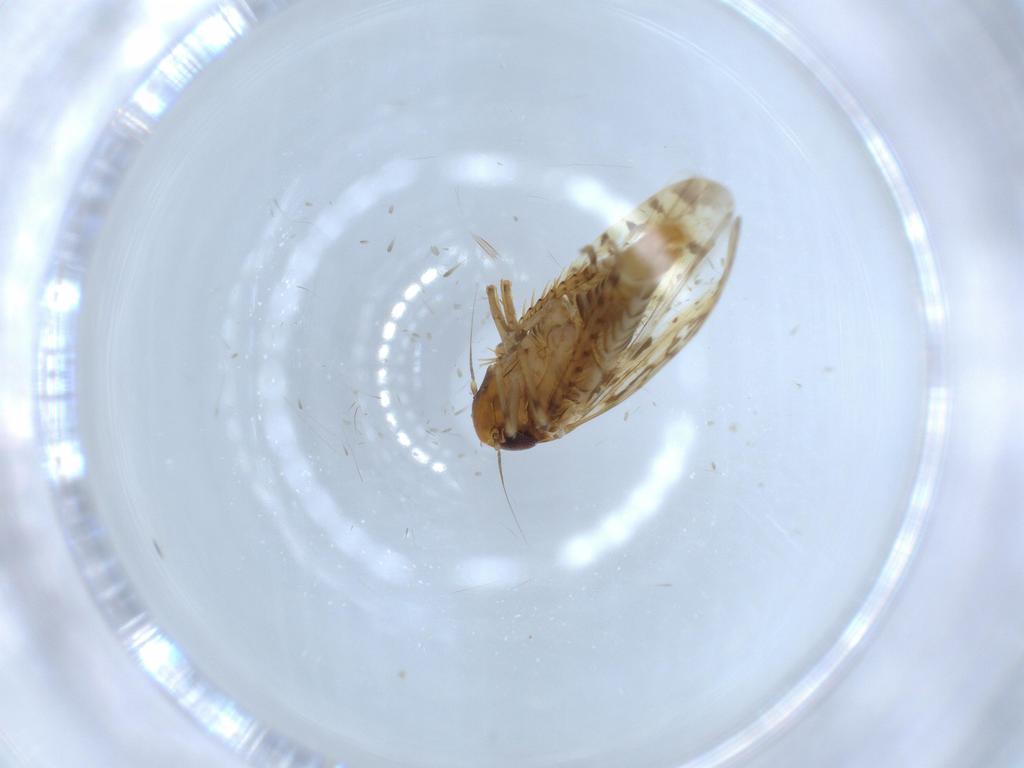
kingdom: Animalia
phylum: Arthropoda
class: Insecta
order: Hemiptera
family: Cicadellidae
